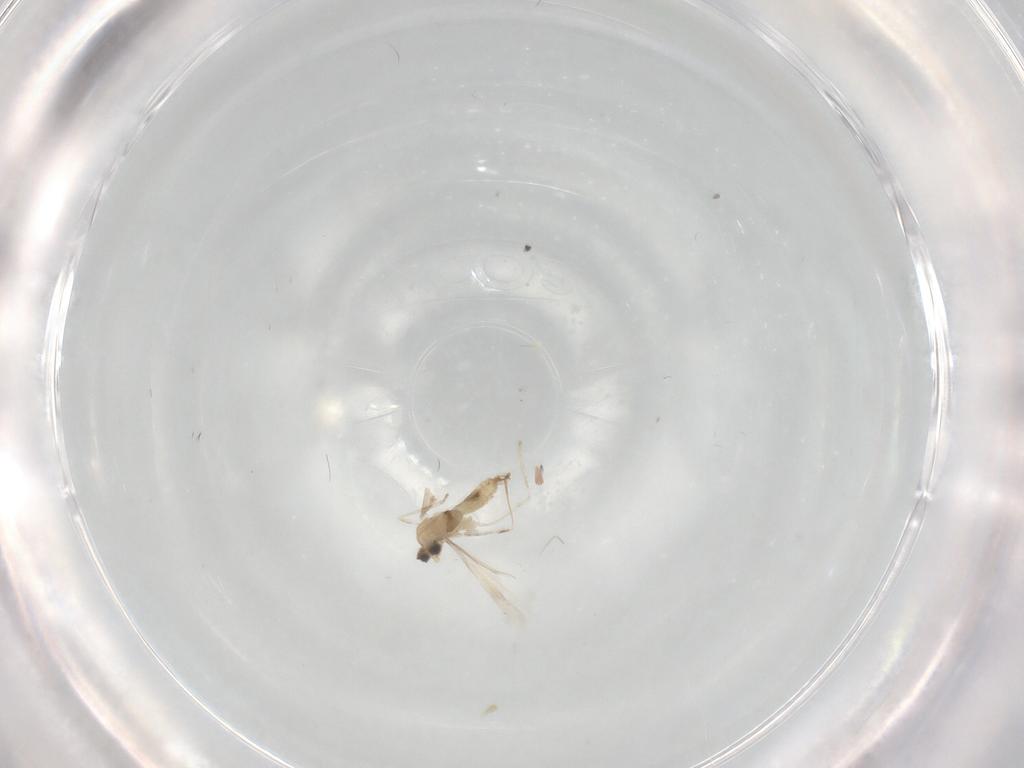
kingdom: Animalia
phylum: Arthropoda
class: Insecta
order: Diptera
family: Cecidomyiidae
